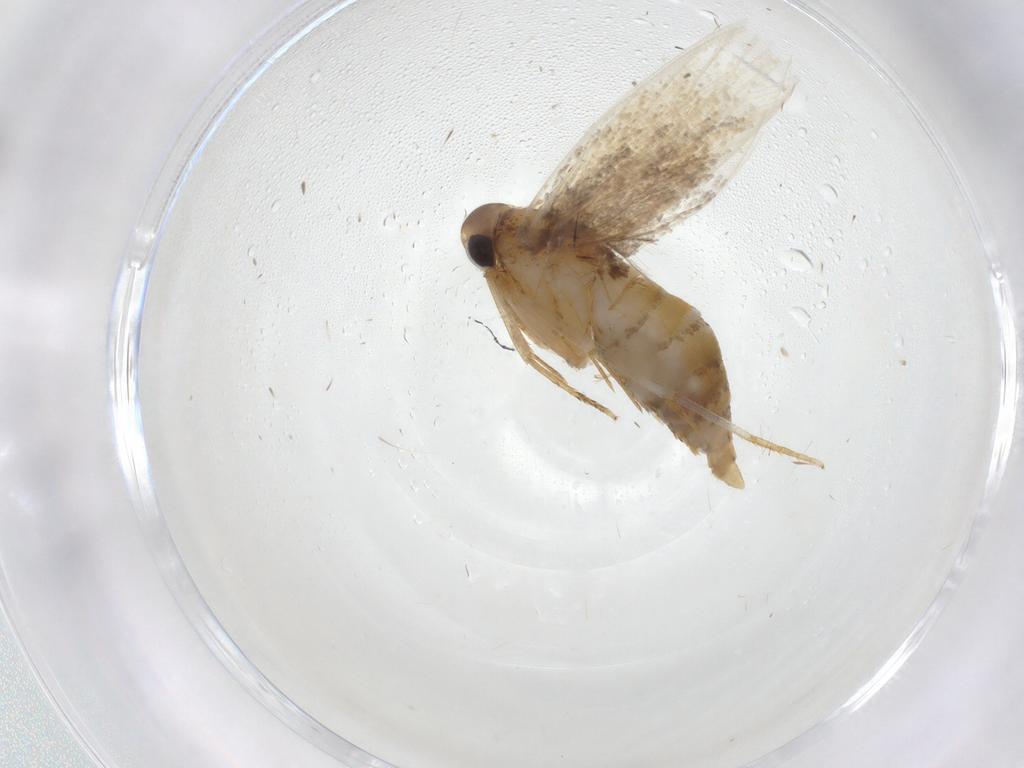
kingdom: Animalia
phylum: Arthropoda
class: Insecta
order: Lepidoptera
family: Oecophoridae
